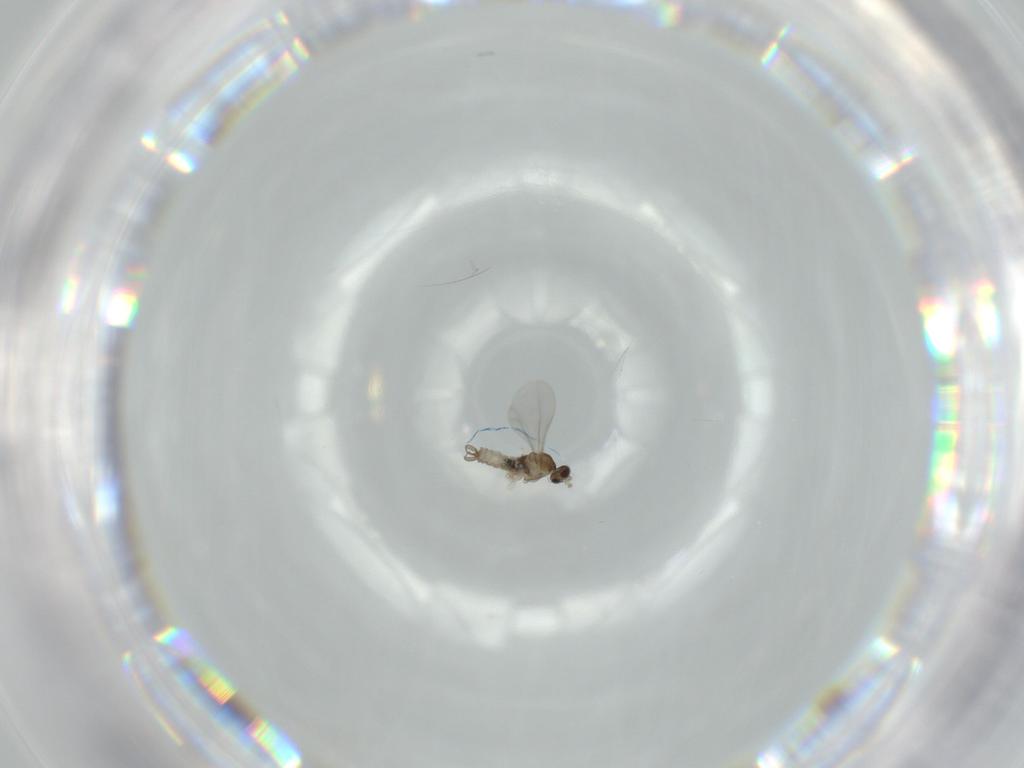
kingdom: Animalia
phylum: Arthropoda
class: Insecta
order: Diptera
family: Cecidomyiidae
